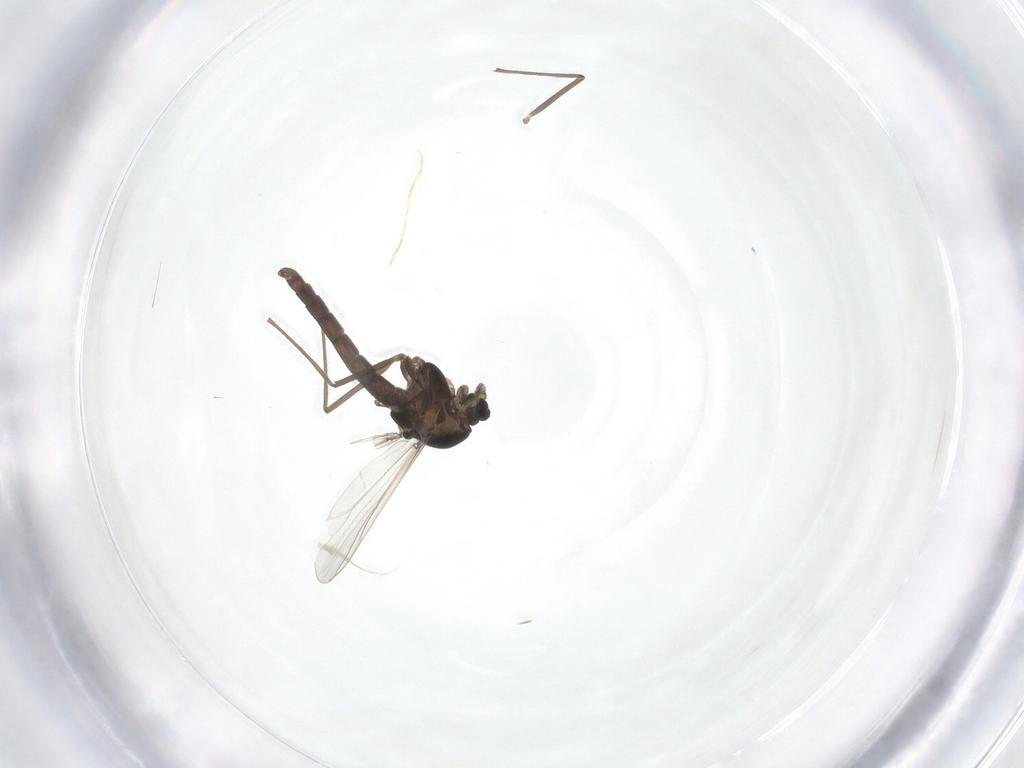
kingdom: Animalia
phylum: Arthropoda
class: Insecta
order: Diptera
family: Chironomidae
